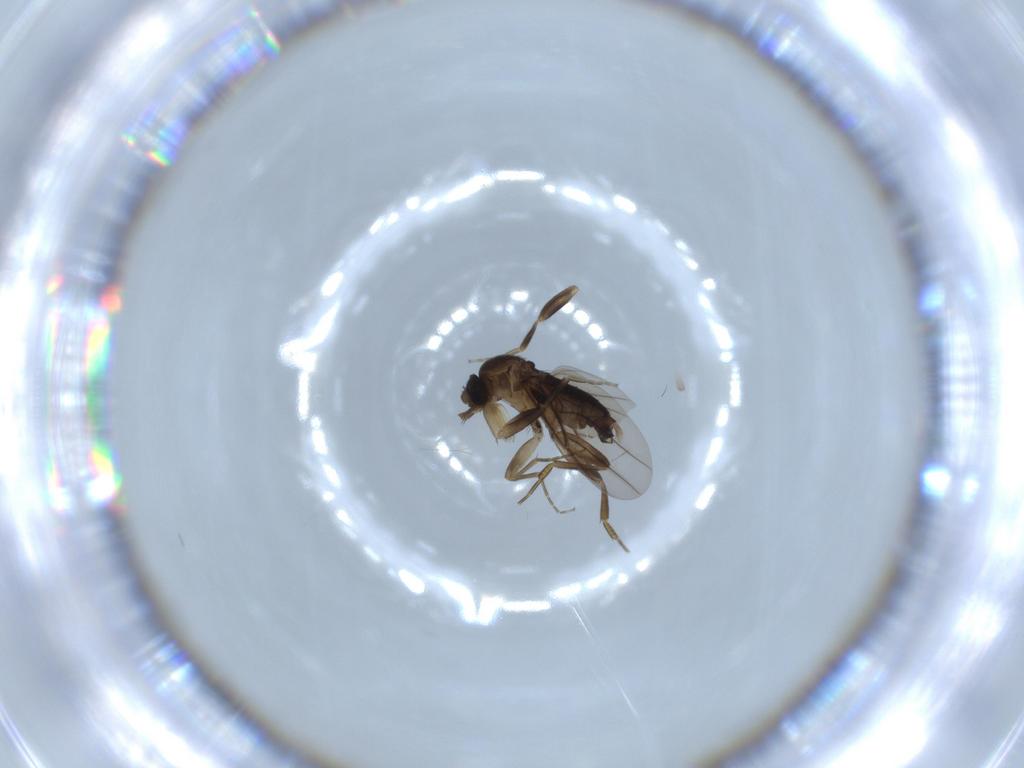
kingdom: Animalia
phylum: Arthropoda
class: Insecta
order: Diptera
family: Phoridae
